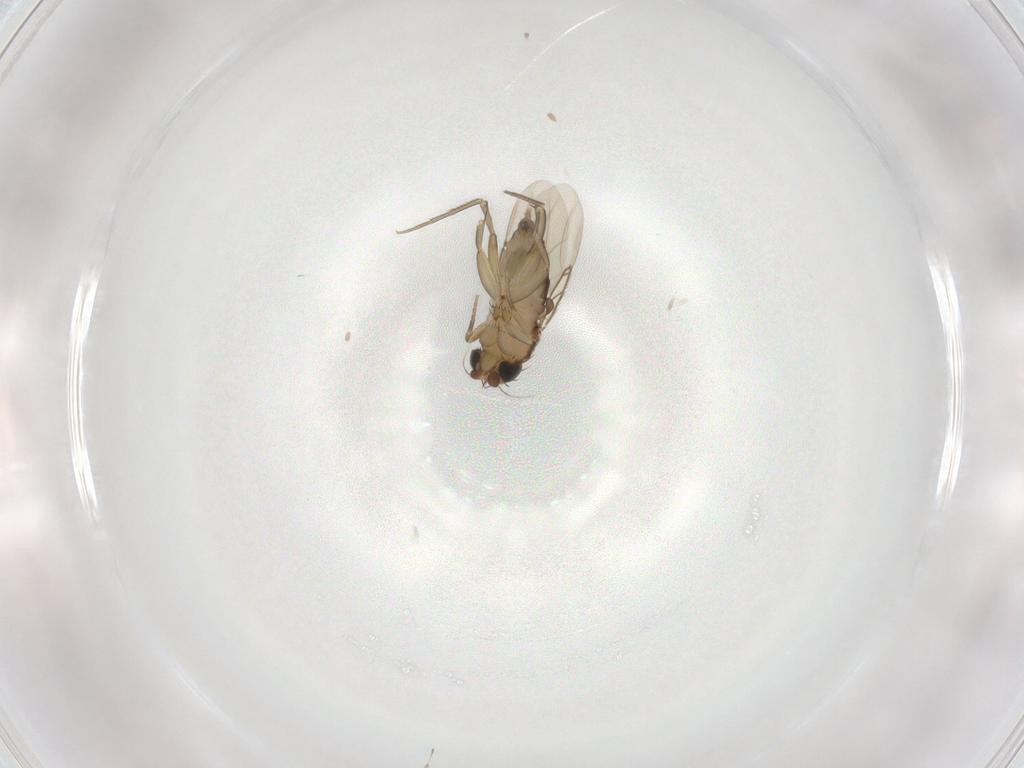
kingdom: Animalia
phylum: Arthropoda
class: Insecta
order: Diptera
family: Phoridae
